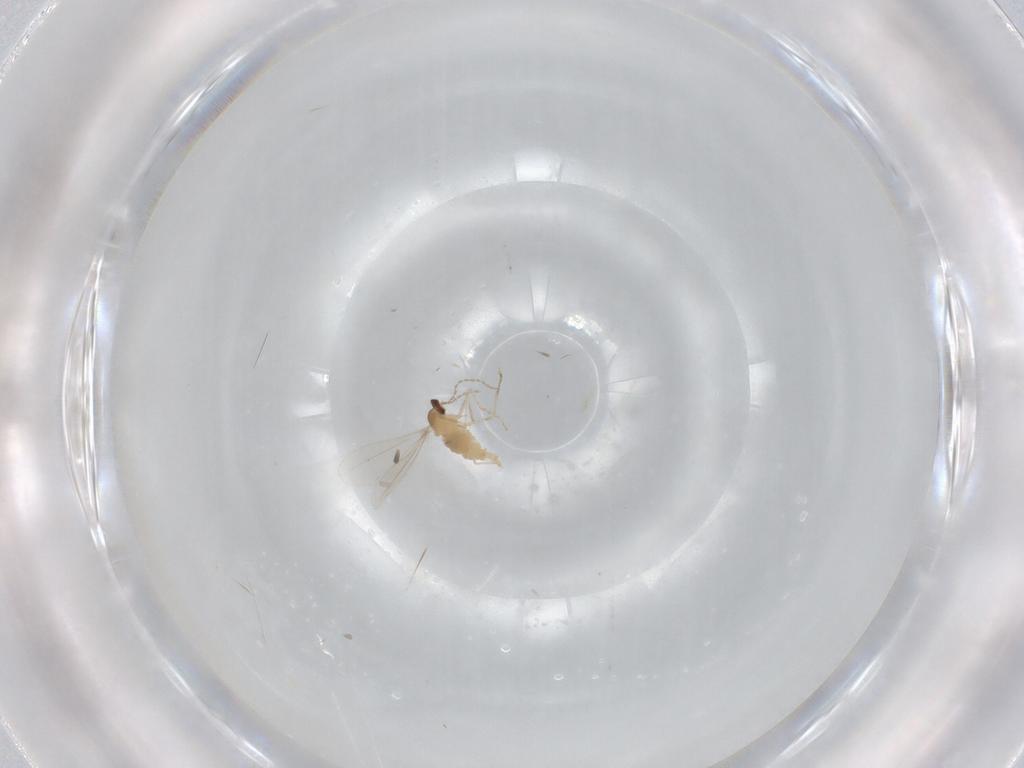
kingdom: Animalia
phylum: Arthropoda
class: Insecta
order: Diptera
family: Cecidomyiidae
